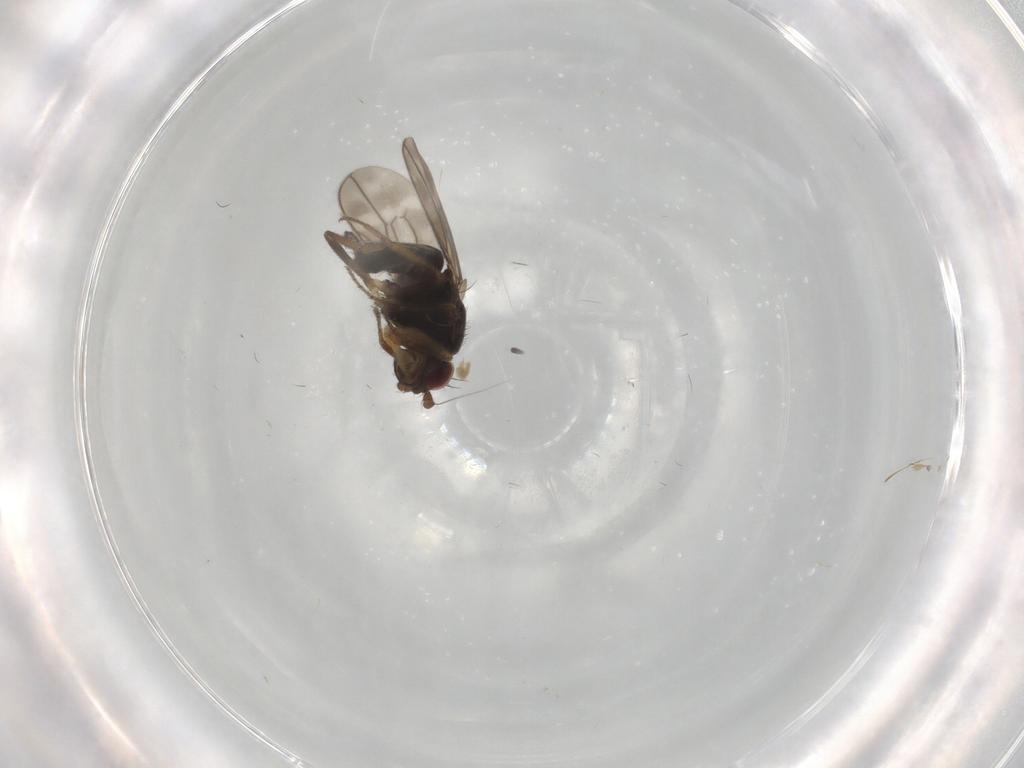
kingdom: Animalia
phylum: Arthropoda
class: Insecta
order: Diptera
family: Sphaeroceridae
